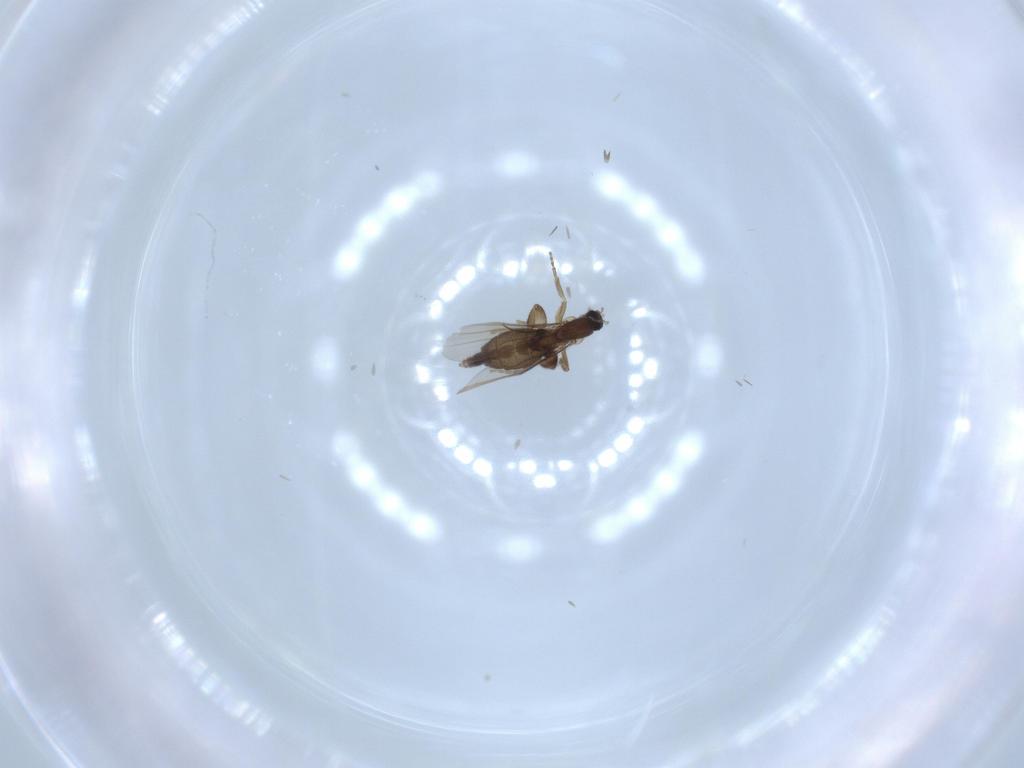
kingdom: Animalia
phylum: Arthropoda
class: Insecta
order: Diptera
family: Phoridae
